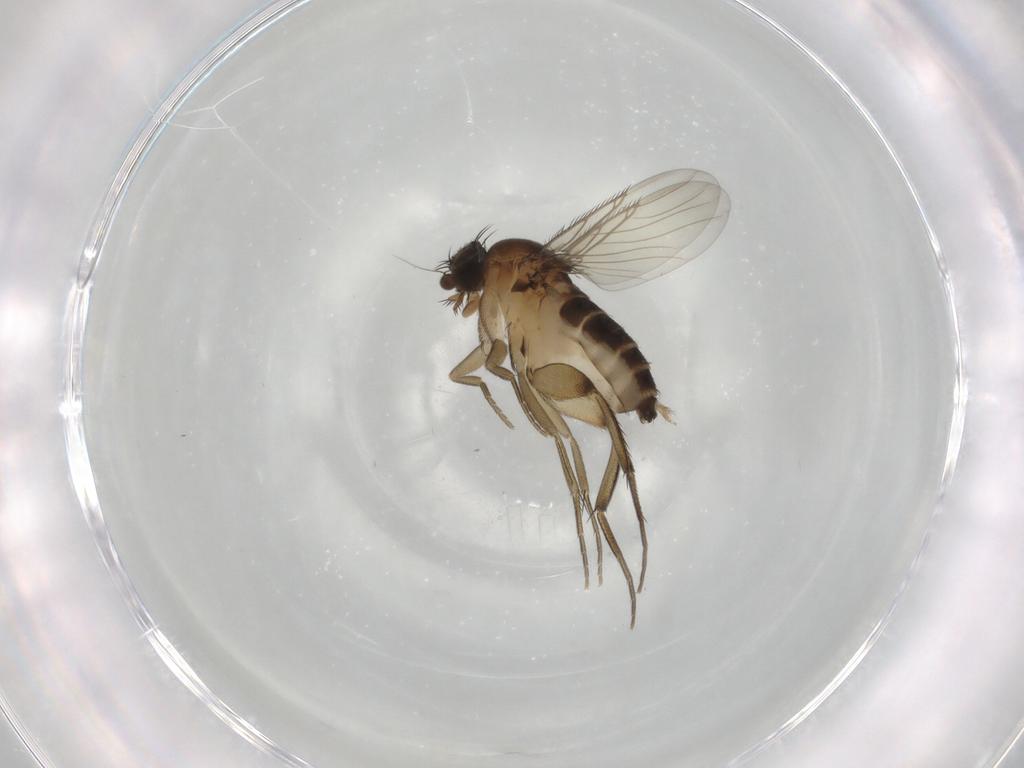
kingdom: Animalia
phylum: Arthropoda
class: Insecta
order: Diptera
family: Phoridae
